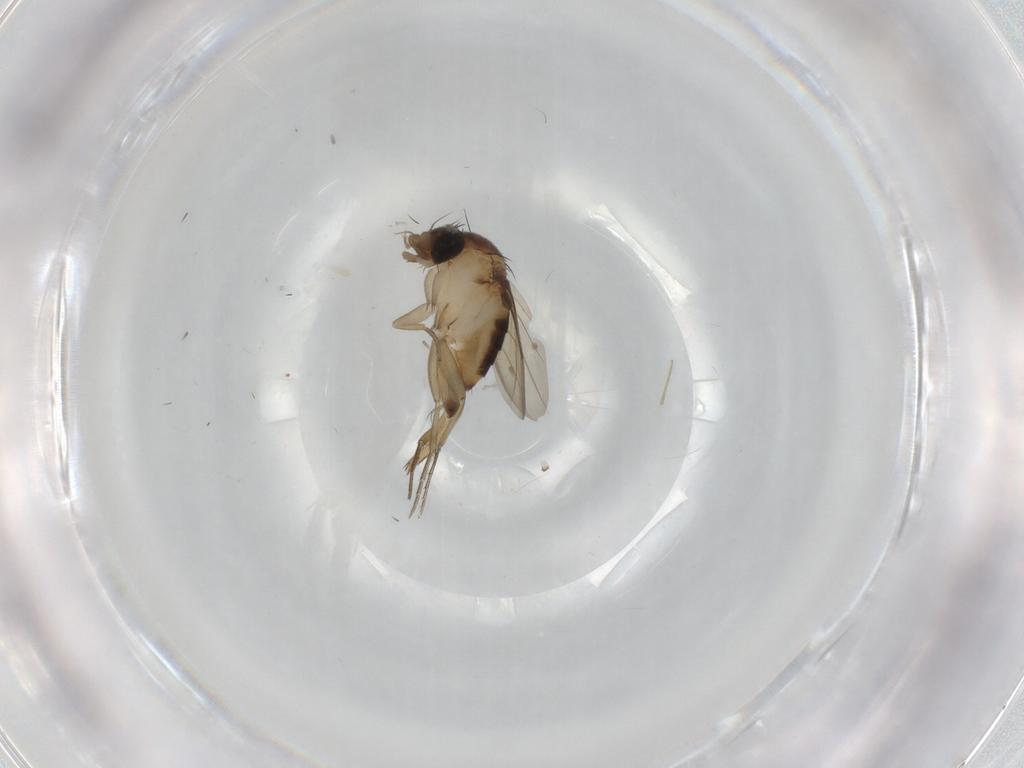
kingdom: Animalia
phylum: Arthropoda
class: Insecta
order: Diptera
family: Phoridae
